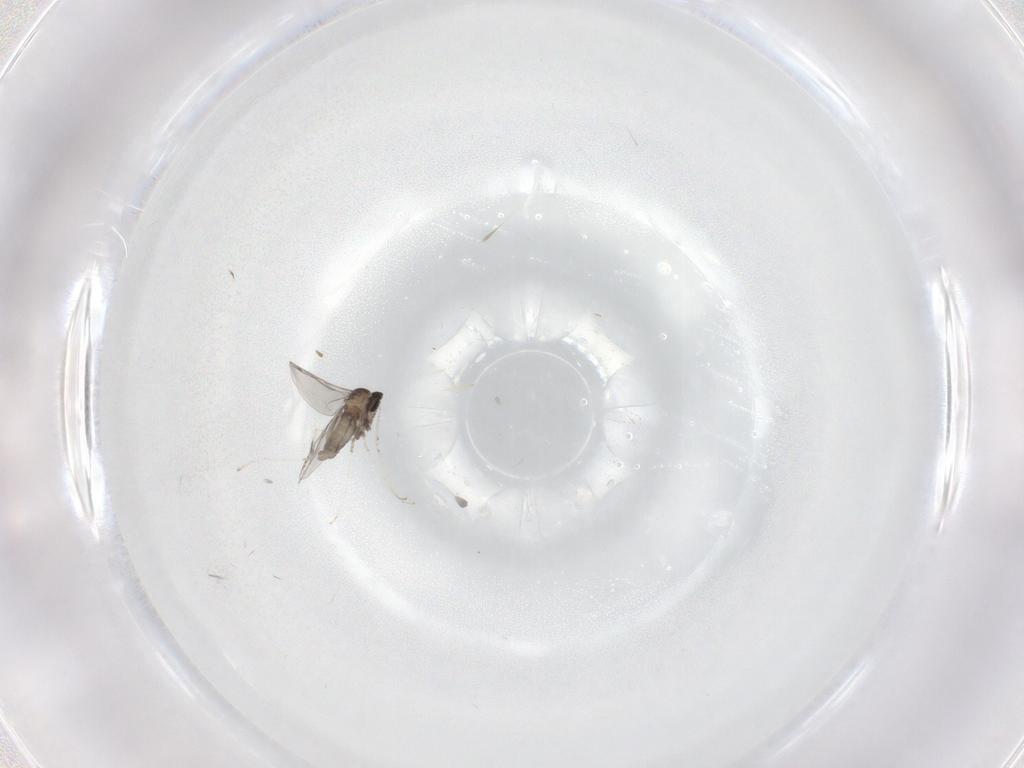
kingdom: Animalia
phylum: Arthropoda
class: Insecta
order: Diptera
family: Cecidomyiidae
